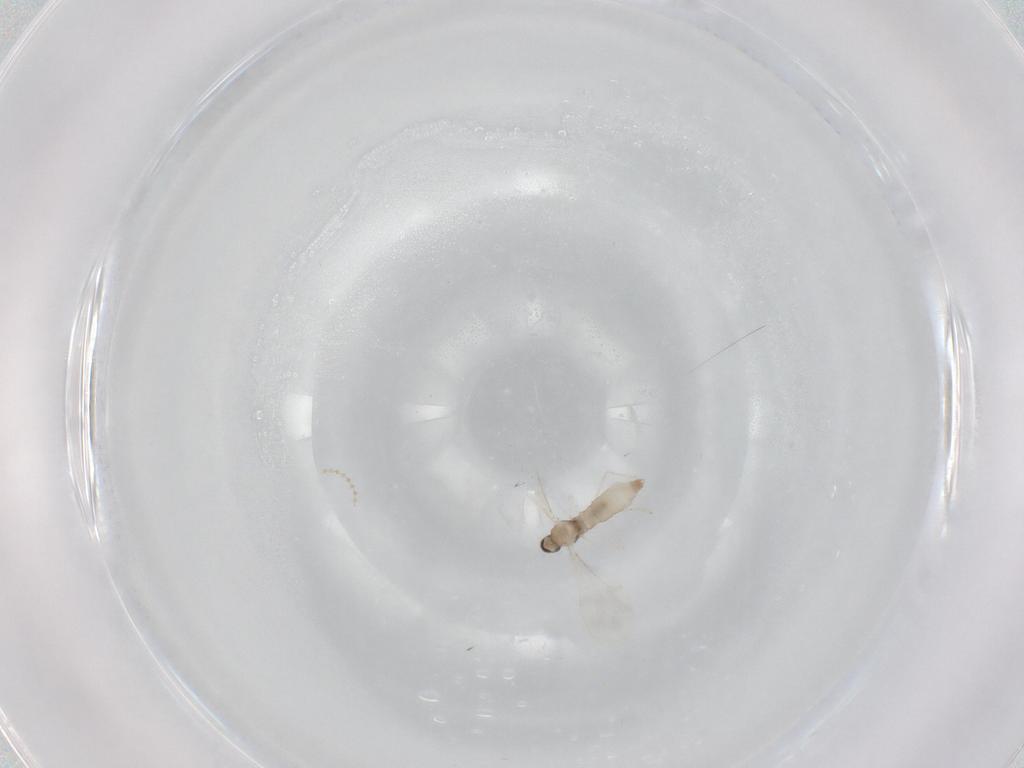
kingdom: Animalia
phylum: Arthropoda
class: Insecta
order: Diptera
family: Cecidomyiidae
